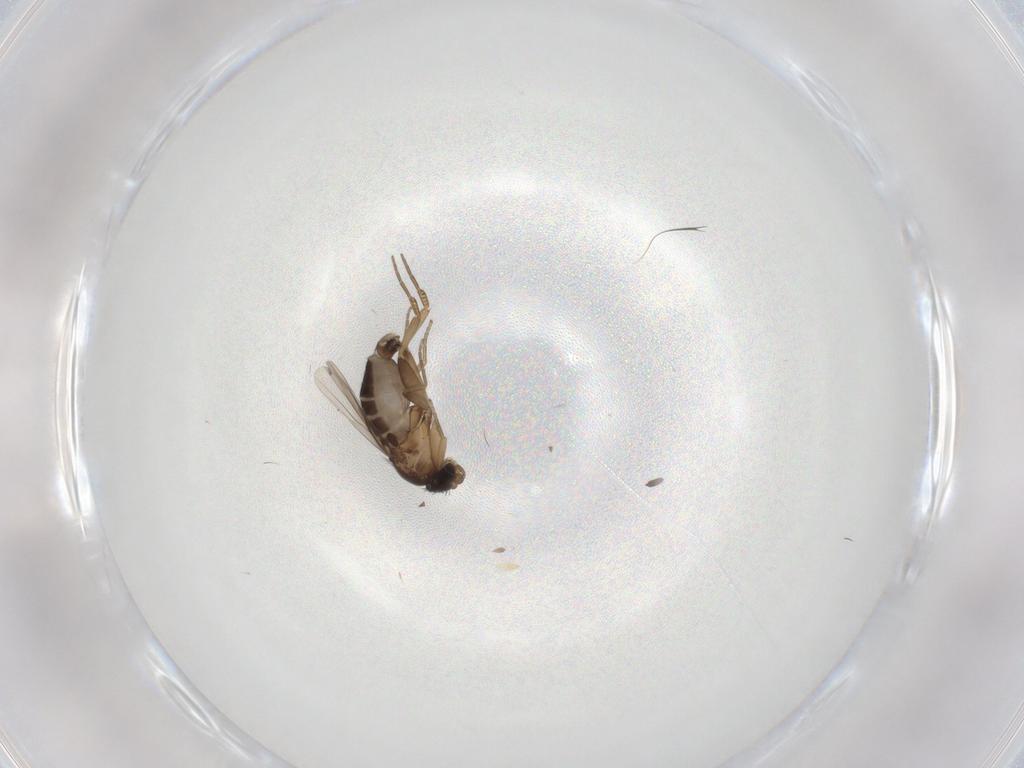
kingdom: Animalia
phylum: Arthropoda
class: Insecta
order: Diptera
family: Phoridae
